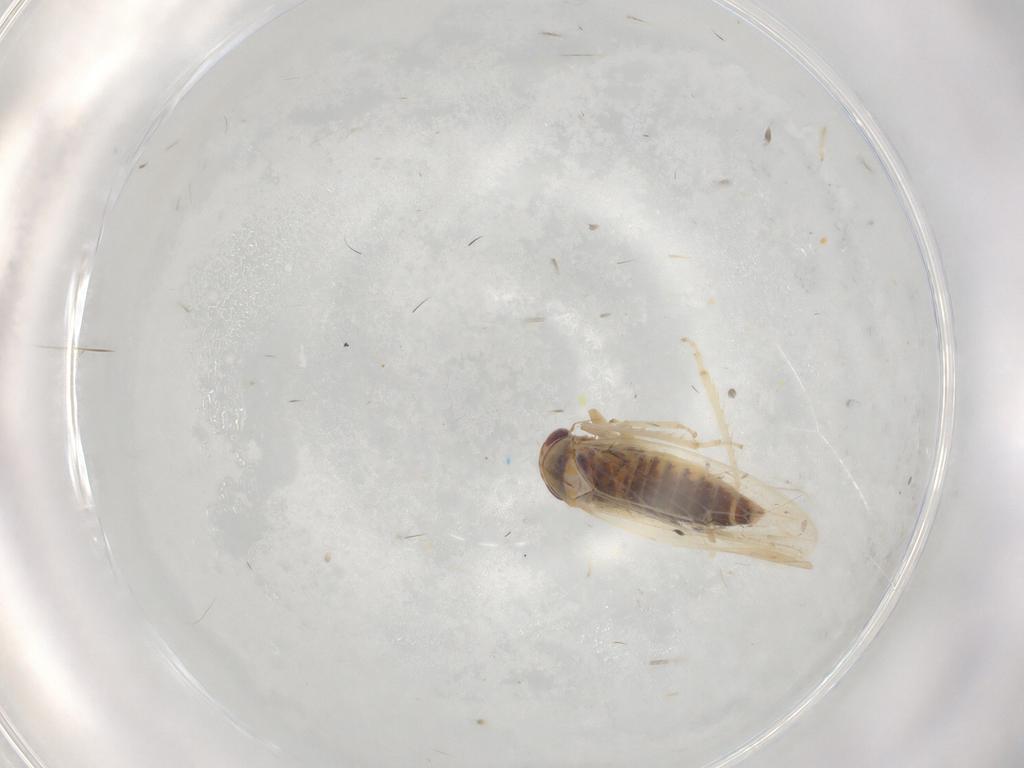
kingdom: Animalia
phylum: Arthropoda
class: Insecta
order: Hemiptera
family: Cicadellidae
